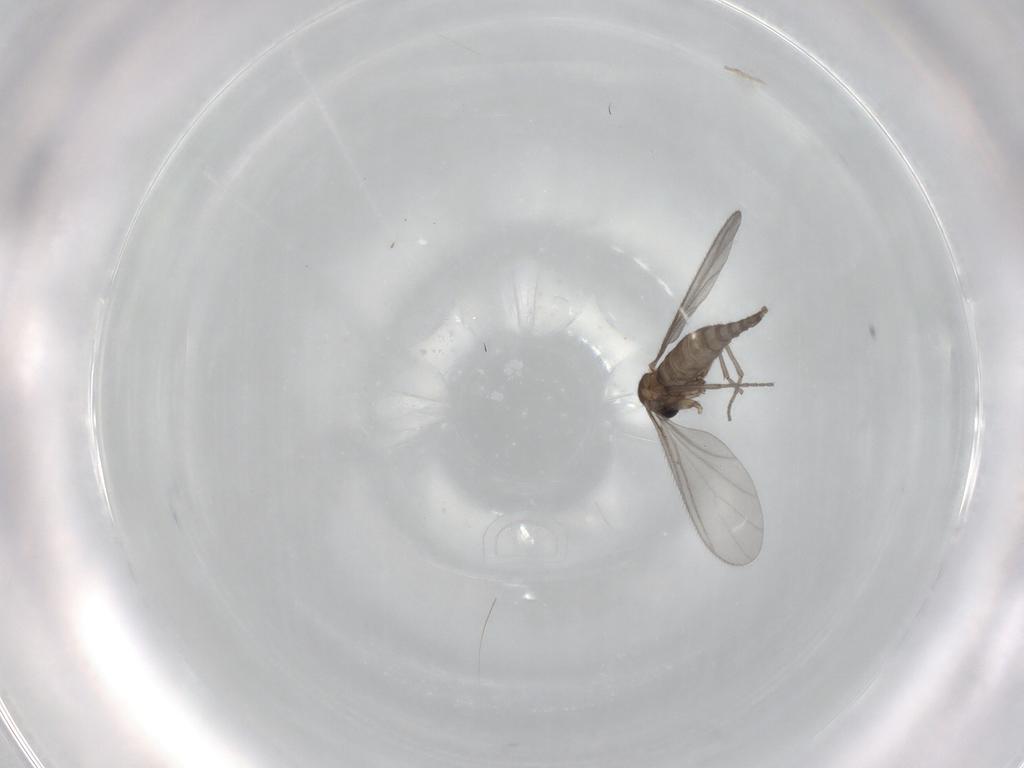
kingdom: Animalia
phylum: Arthropoda
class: Insecta
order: Diptera
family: Sciaridae
